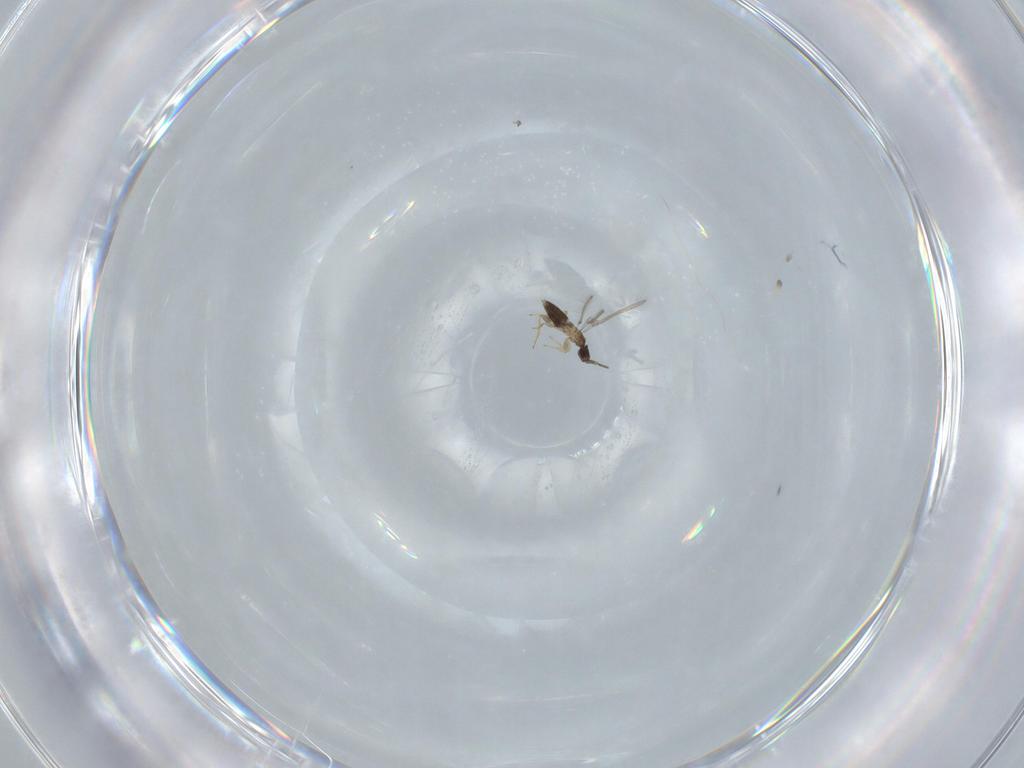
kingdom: Animalia
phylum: Arthropoda
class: Insecta
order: Hymenoptera
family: Mymaridae
